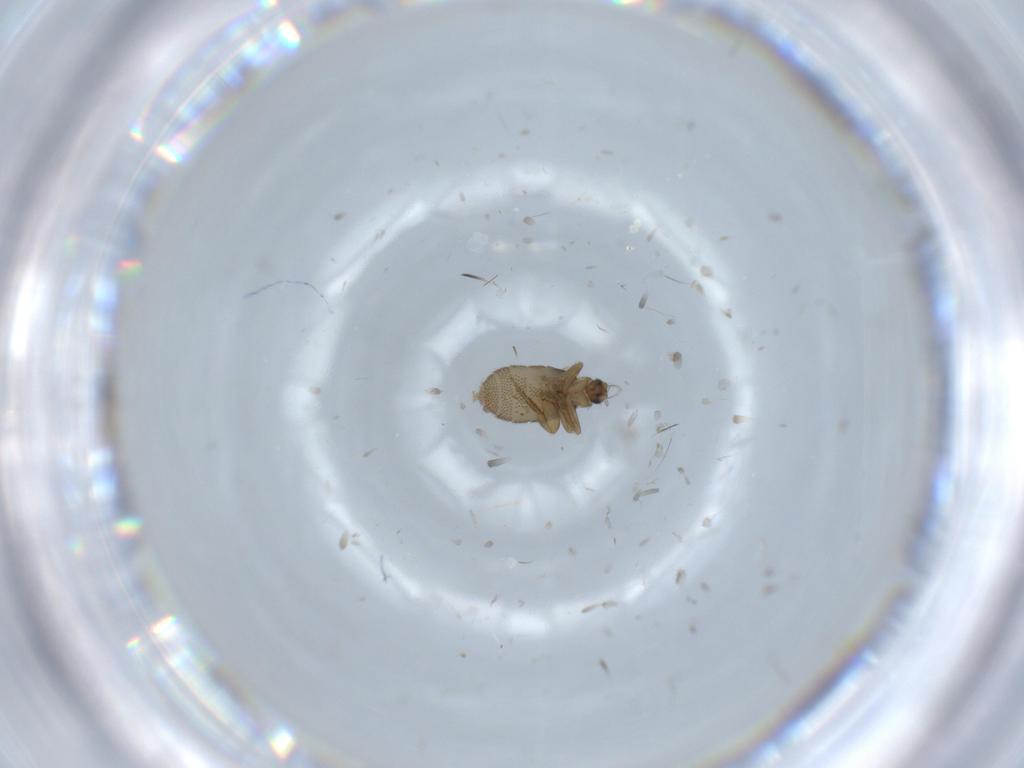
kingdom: Animalia
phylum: Arthropoda
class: Insecta
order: Diptera
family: Phoridae
